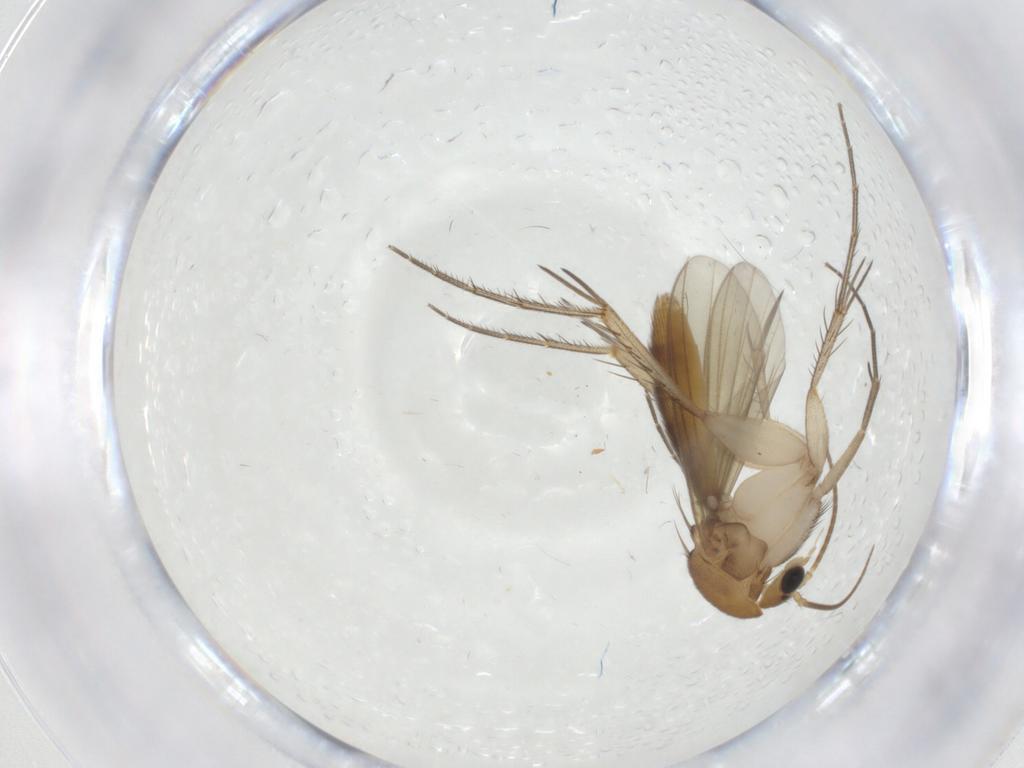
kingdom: Animalia
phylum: Arthropoda
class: Insecta
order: Diptera
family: Mycetophilidae
